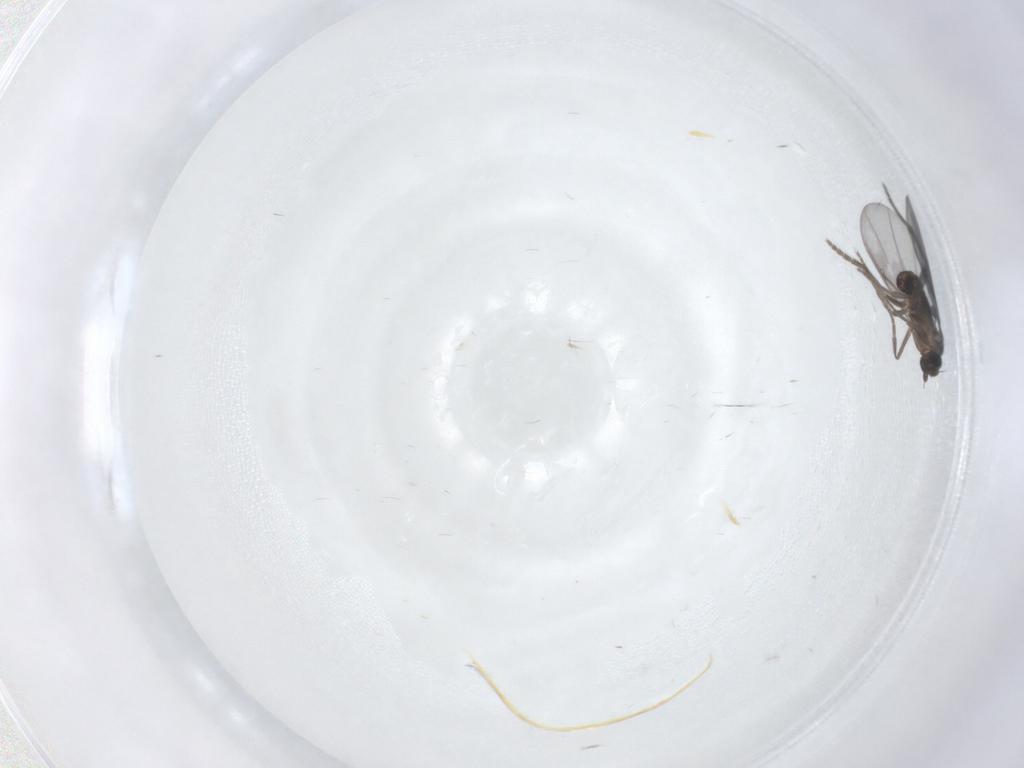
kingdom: Animalia
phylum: Arthropoda
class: Insecta
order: Diptera
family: Phoridae
